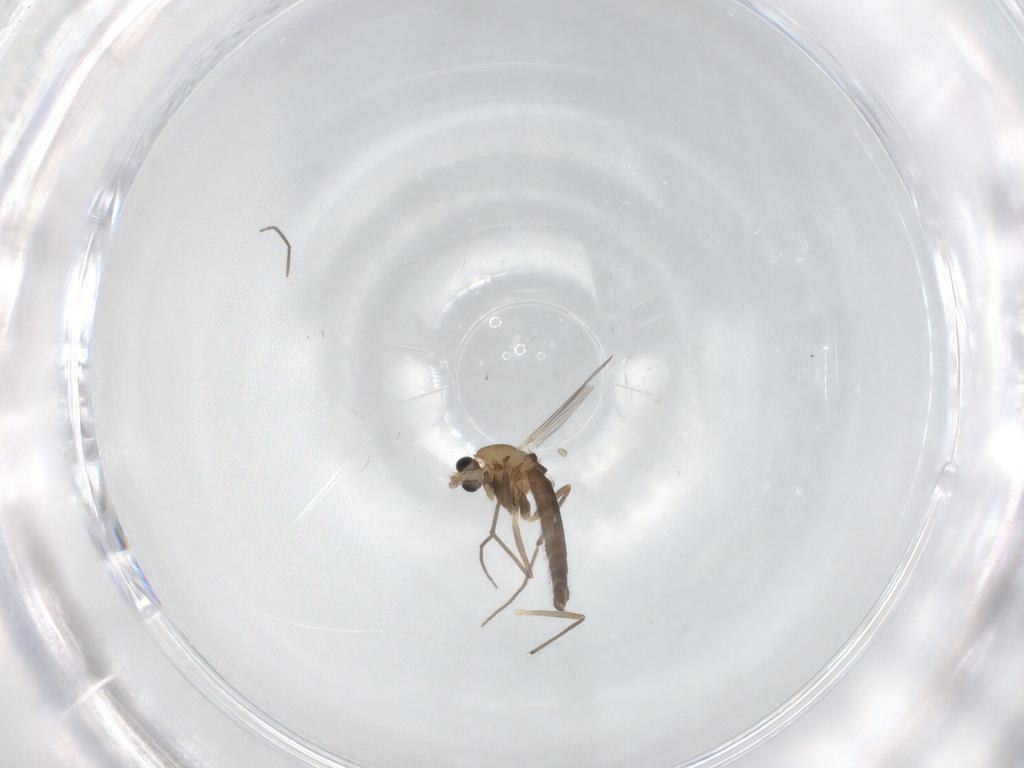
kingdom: Animalia
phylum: Arthropoda
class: Insecta
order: Diptera
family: Chironomidae
